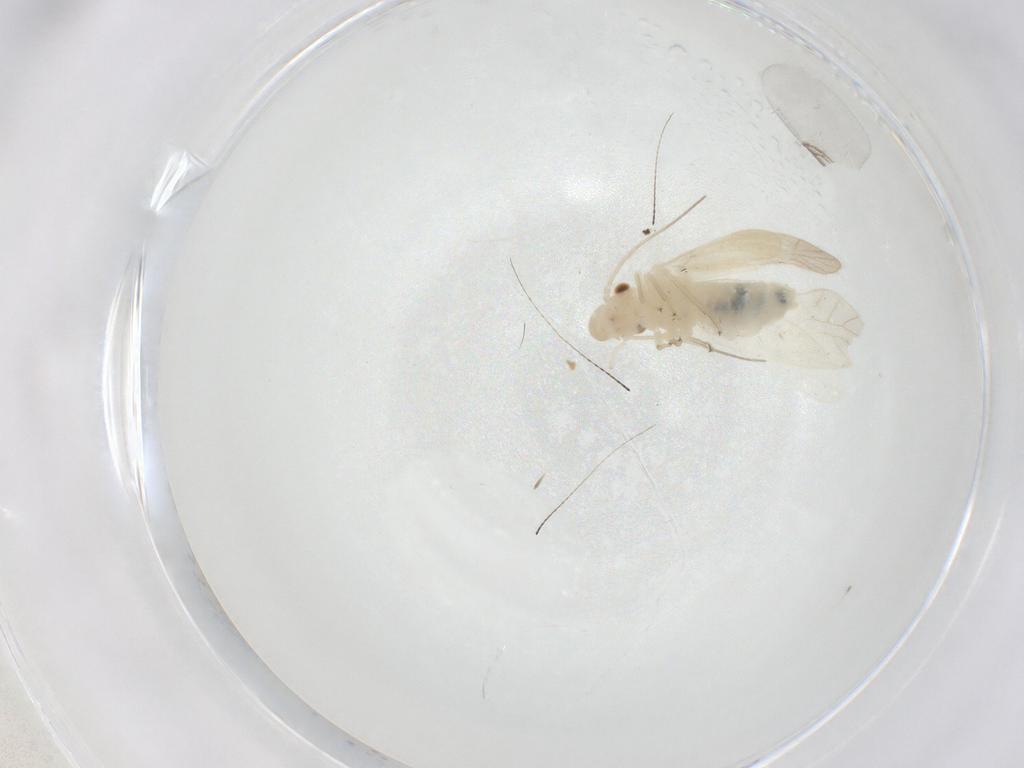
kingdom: Animalia
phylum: Arthropoda
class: Insecta
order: Psocodea
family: Caeciliusidae
